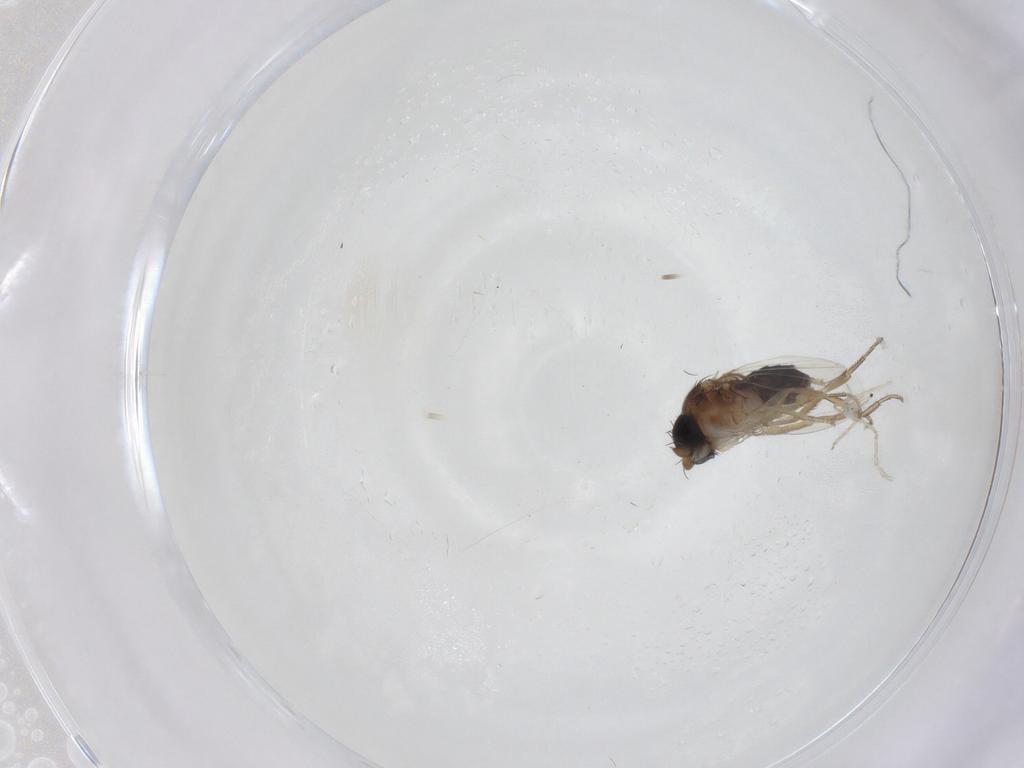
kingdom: Animalia
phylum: Arthropoda
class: Insecta
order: Diptera
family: Phoridae
